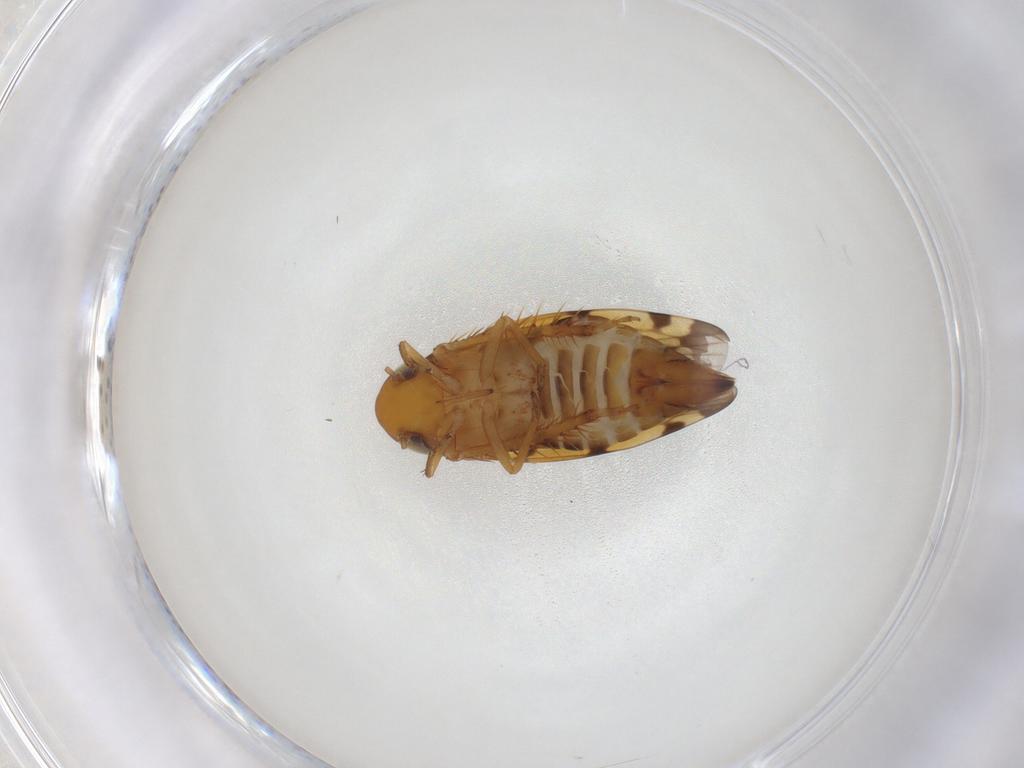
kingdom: Animalia
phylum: Arthropoda
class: Insecta
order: Hemiptera
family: Cicadellidae
